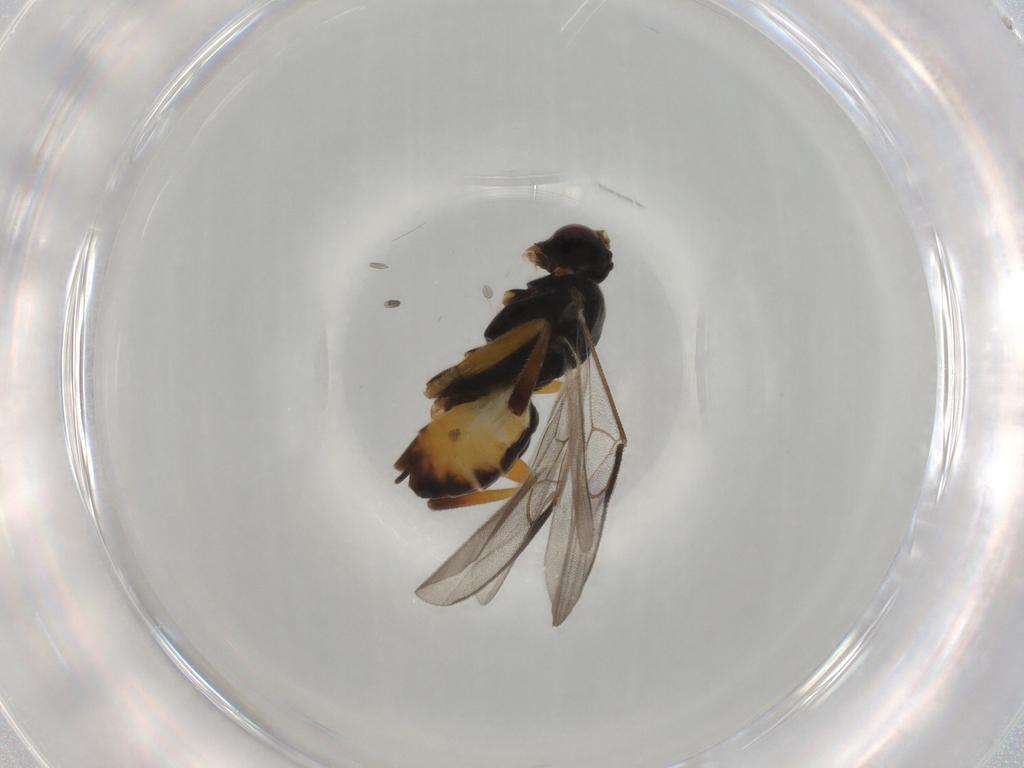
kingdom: Animalia
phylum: Arthropoda
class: Insecta
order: Hymenoptera
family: Braconidae
